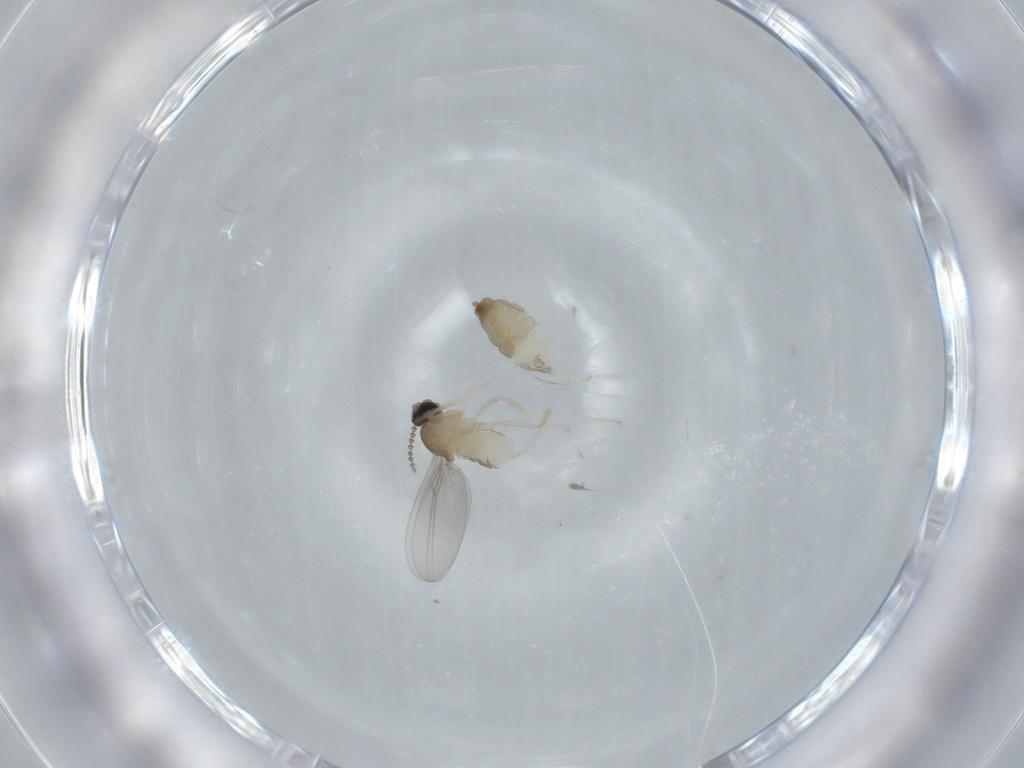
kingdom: Animalia
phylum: Arthropoda
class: Insecta
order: Diptera
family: Cecidomyiidae
